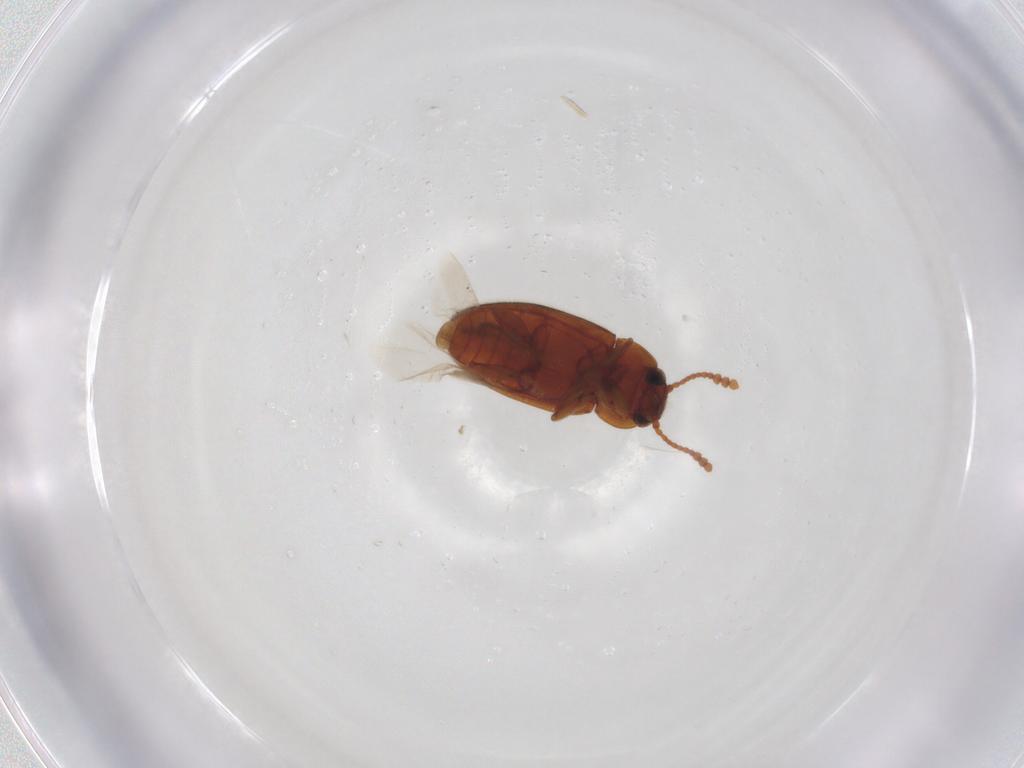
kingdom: Animalia
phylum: Arthropoda
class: Insecta
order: Coleoptera
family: Erotylidae
